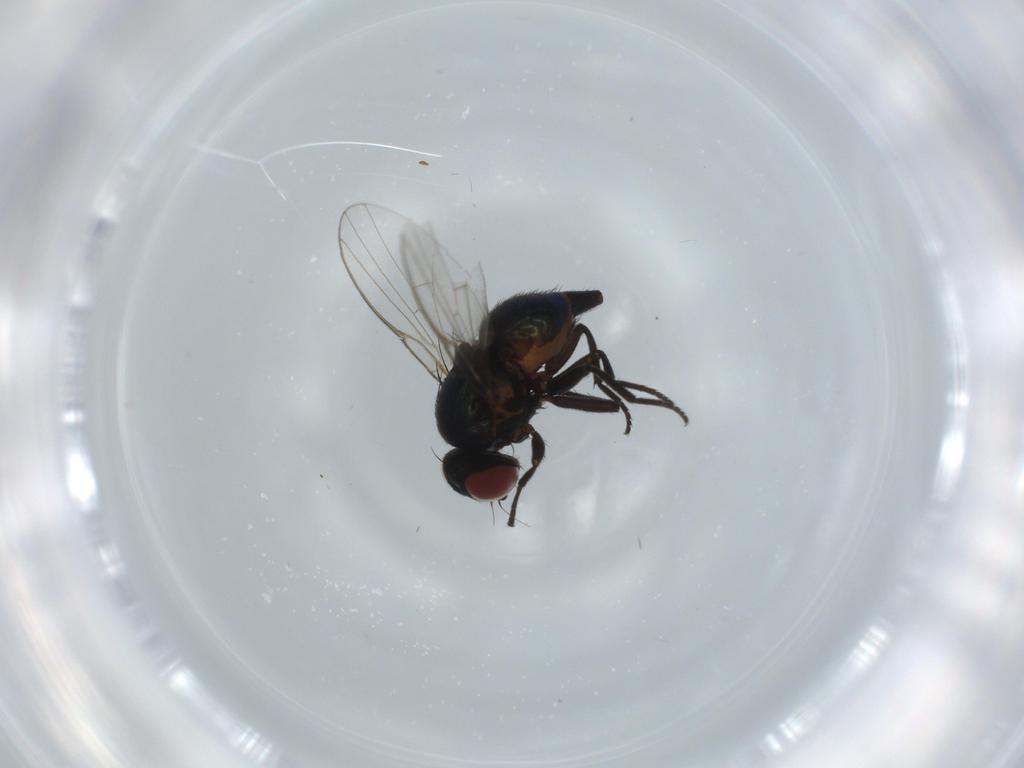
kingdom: Animalia
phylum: Arthropoda
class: Insecta
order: Diptera
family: Agromyzidae
